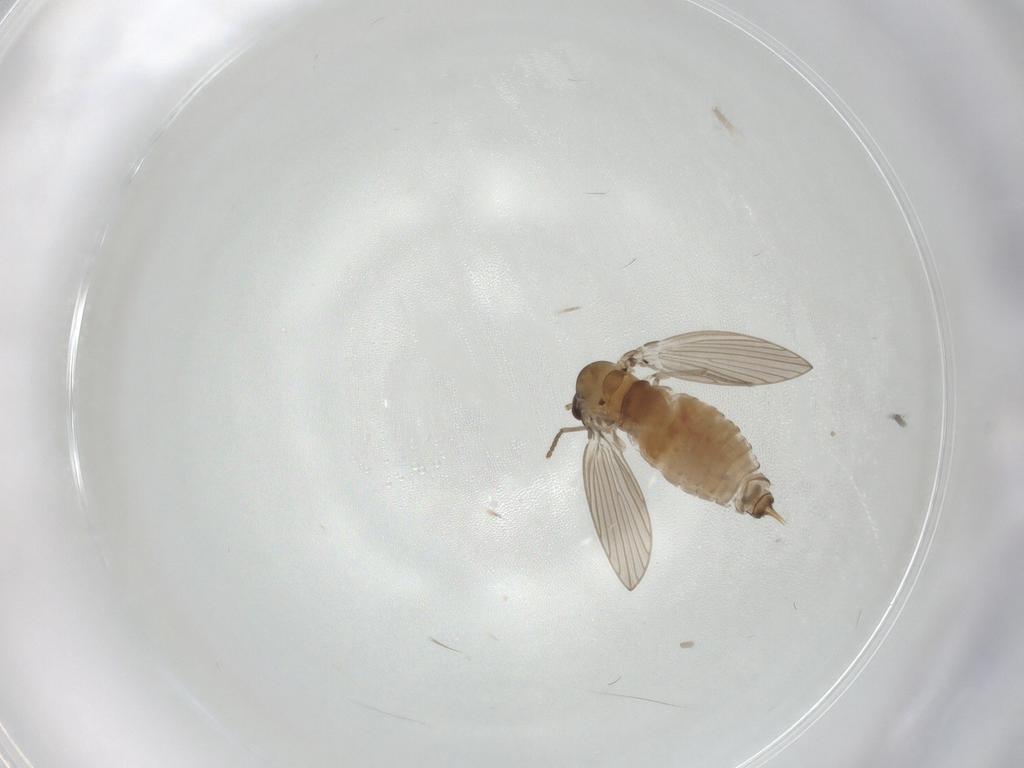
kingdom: Animalia
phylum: Arthropoda
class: Insecta
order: Diptera
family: Psychodidae
